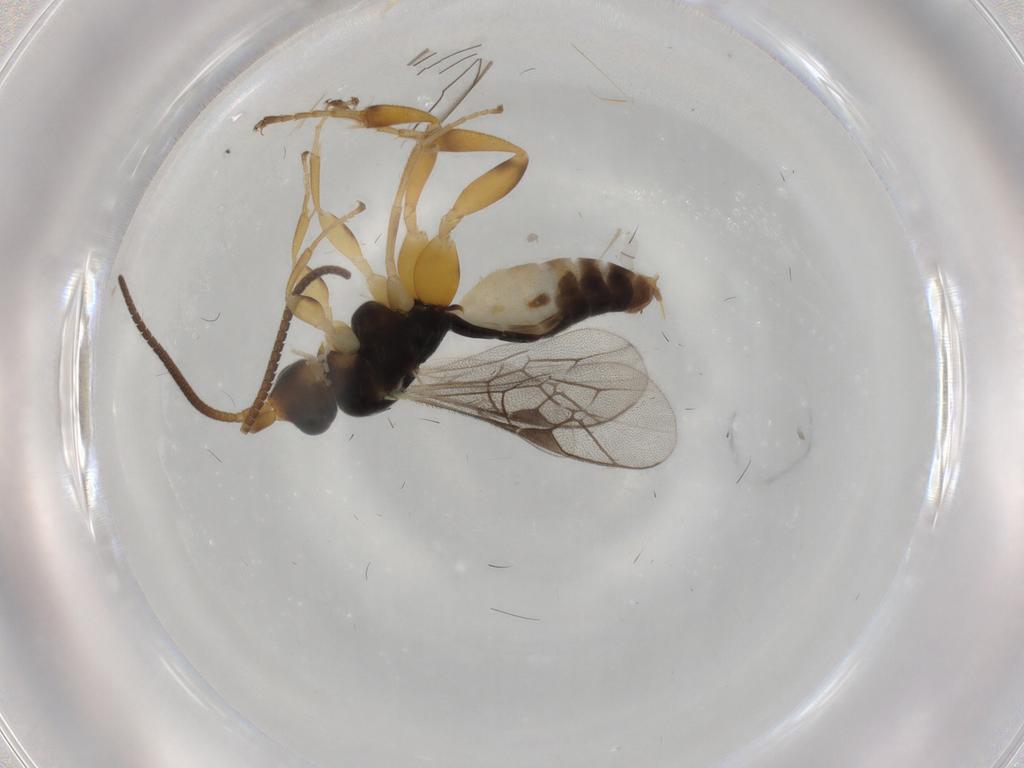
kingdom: Animalia
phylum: Arthropoda
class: Insecta
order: Hymenoptera
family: Ichneumonidae
